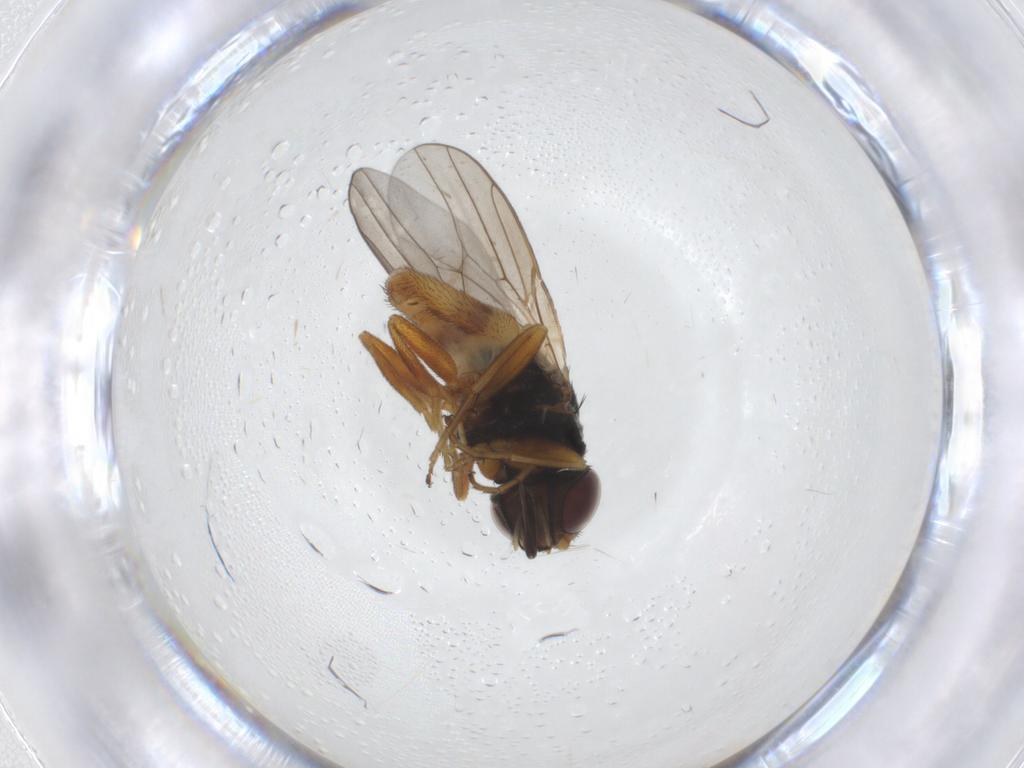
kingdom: Animalia
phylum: Arthropoda
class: Insecta
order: Diptera
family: Chloropidae
